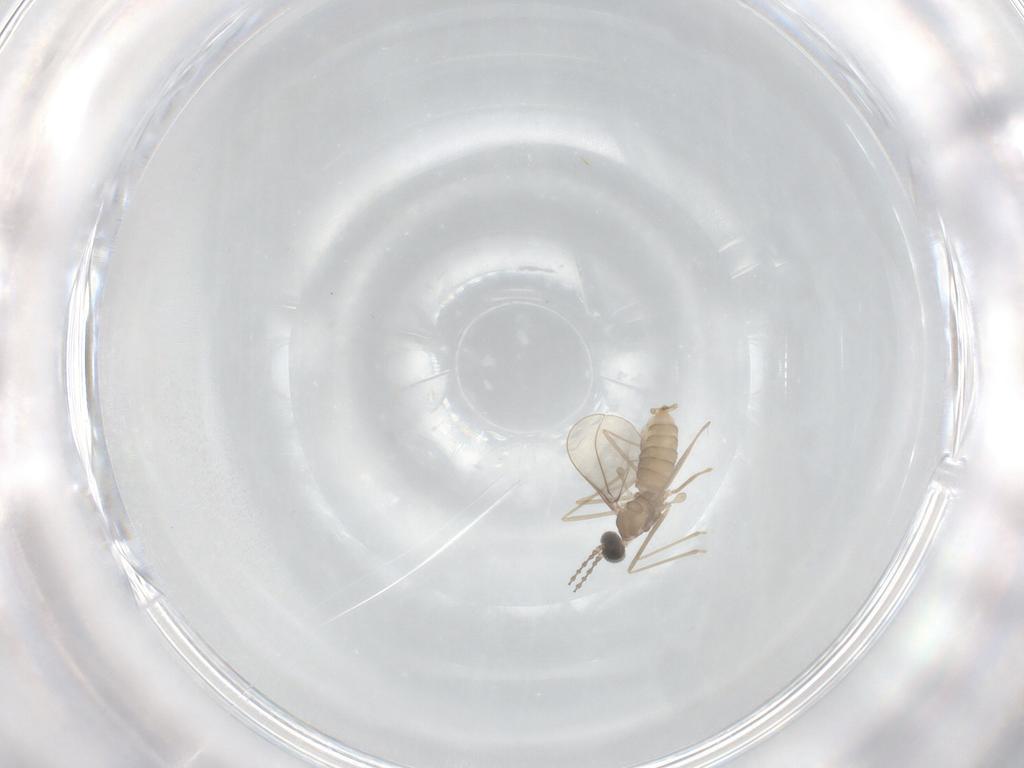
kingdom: Animalia
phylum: Arthropoda
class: Insecta
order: Diptera
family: Cecidomyiidae
